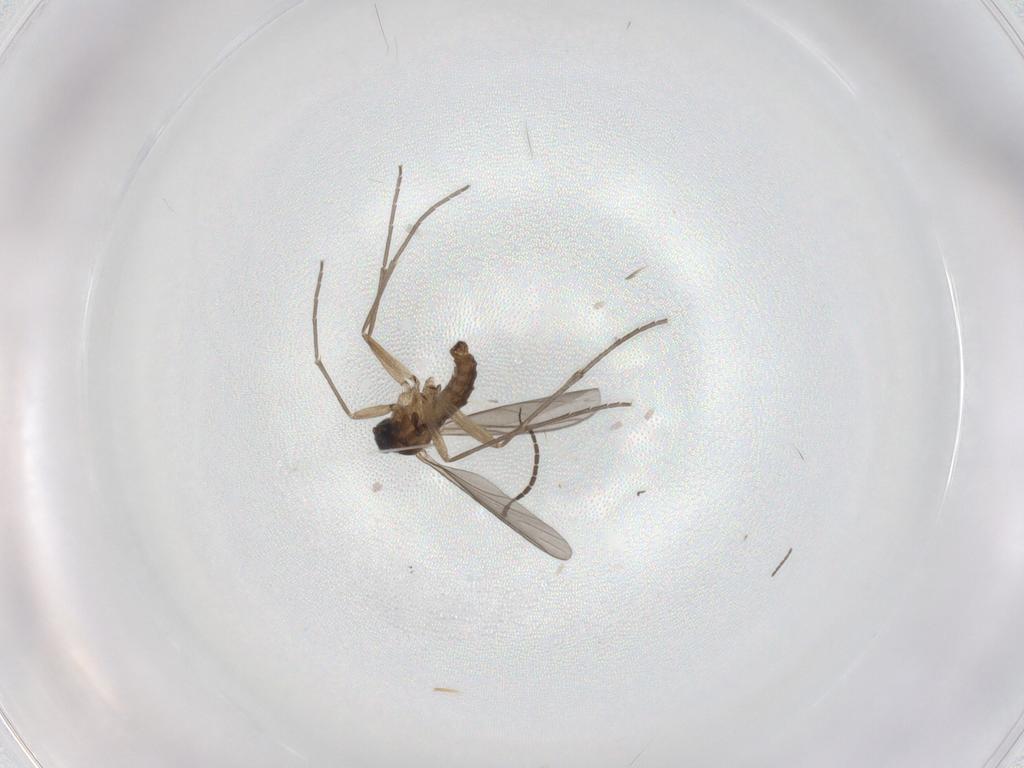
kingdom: Animalia
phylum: Arthropoda
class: Insecta
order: Diptera
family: Sciaridae
